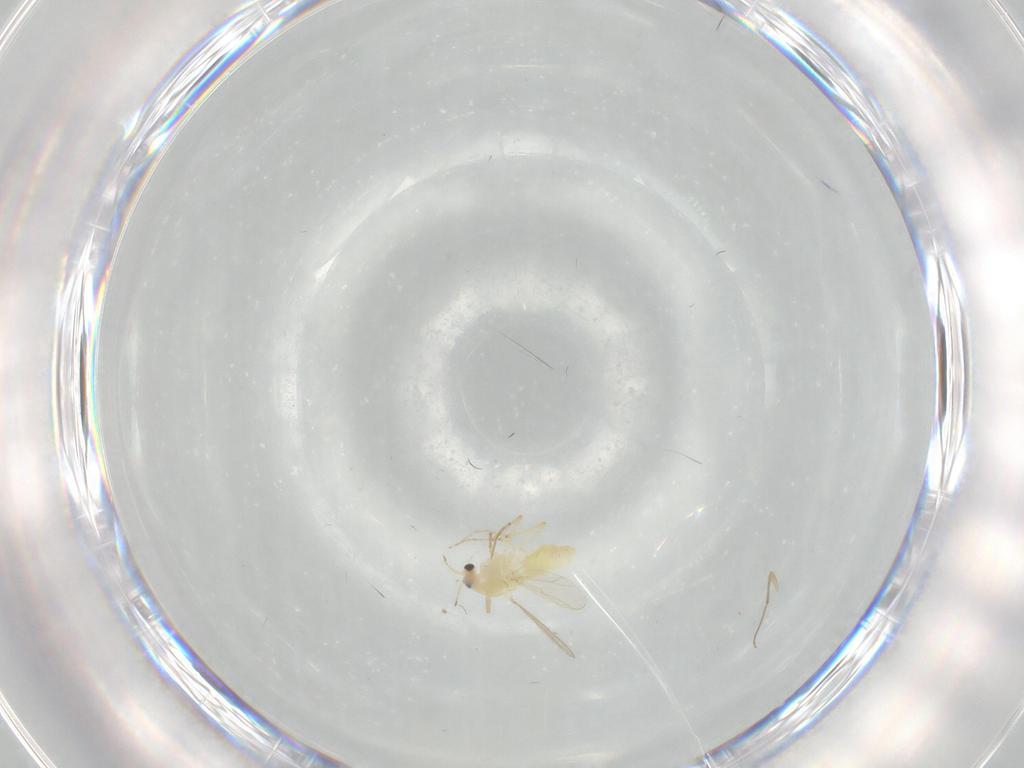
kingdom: Animalia
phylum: Arthropoda
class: Insecta
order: Diptera
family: Chironomidae
